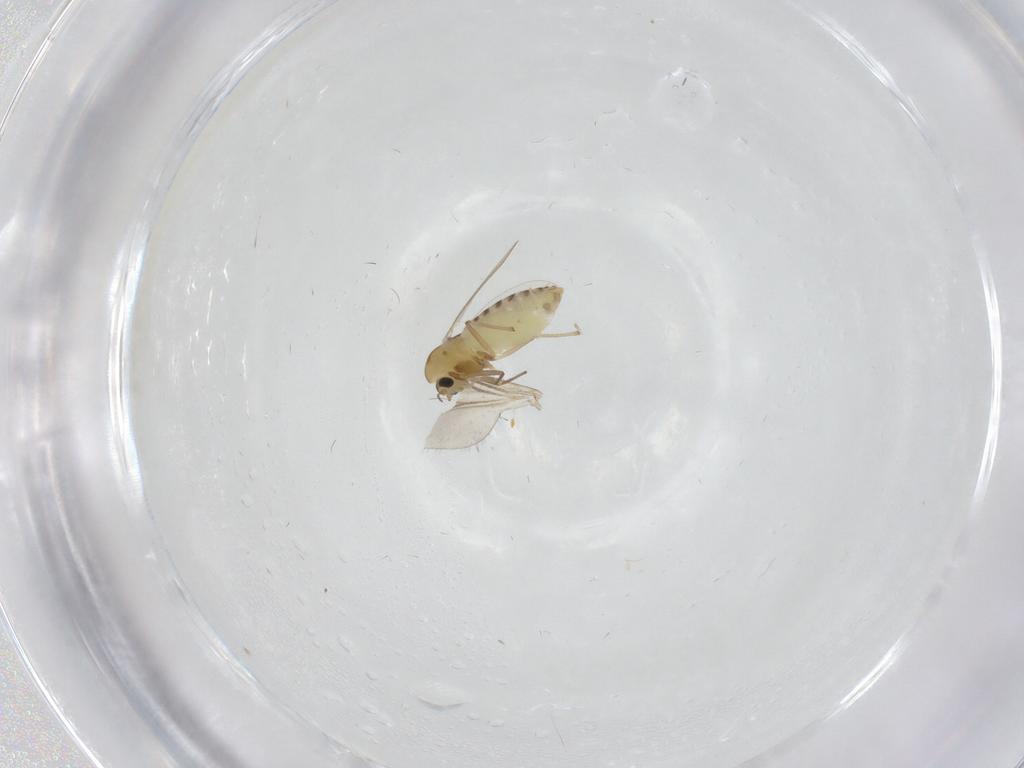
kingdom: Animalia
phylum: Arthropoda
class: Insecta
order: Diptera
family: Chironomidae
